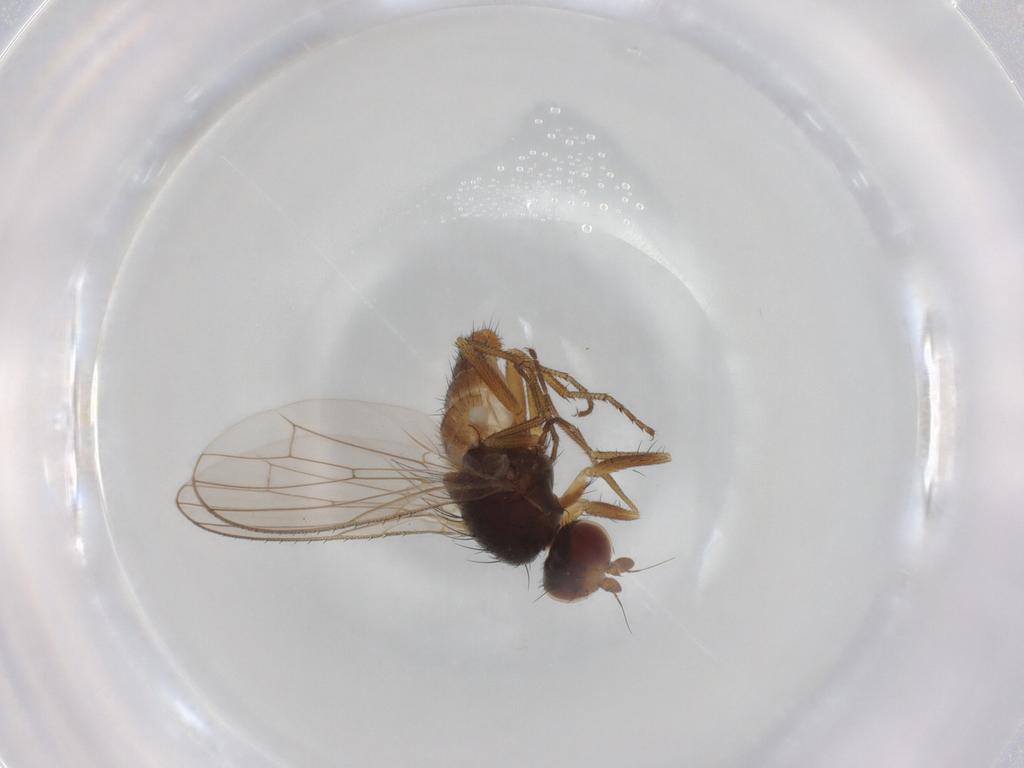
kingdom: Animalia
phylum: Arthropoda
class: Insecta
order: Diptera
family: Heleomyzidae
